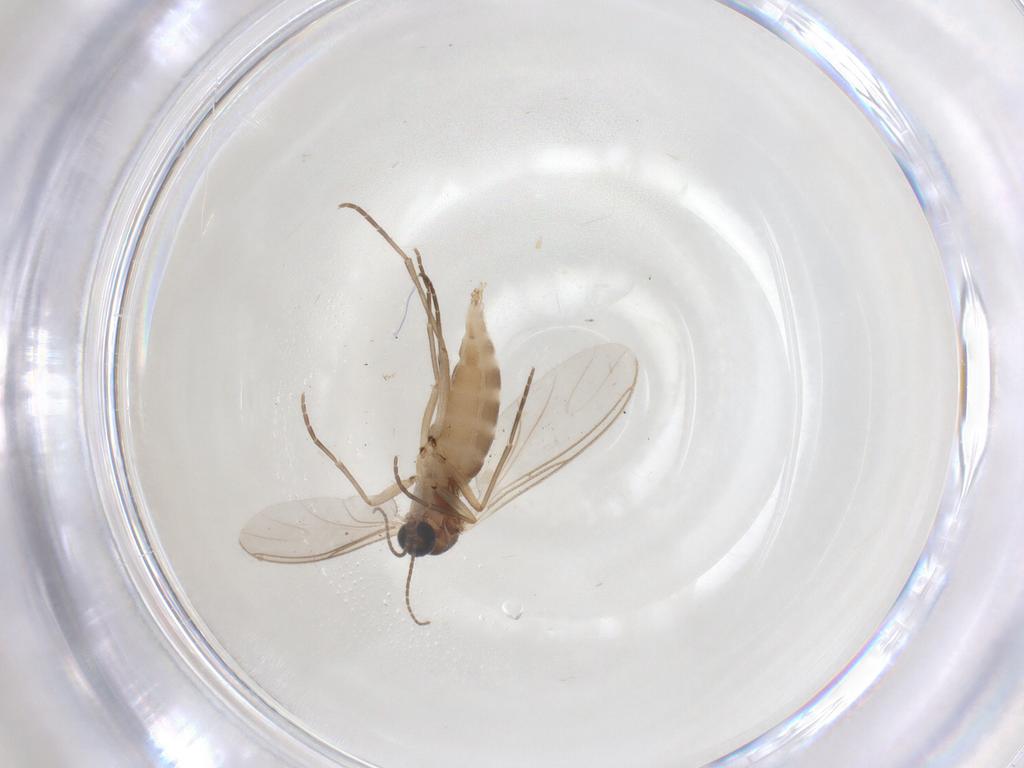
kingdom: Animalia
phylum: Arthropoda
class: Insecta
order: Diptera
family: Sciaridae
